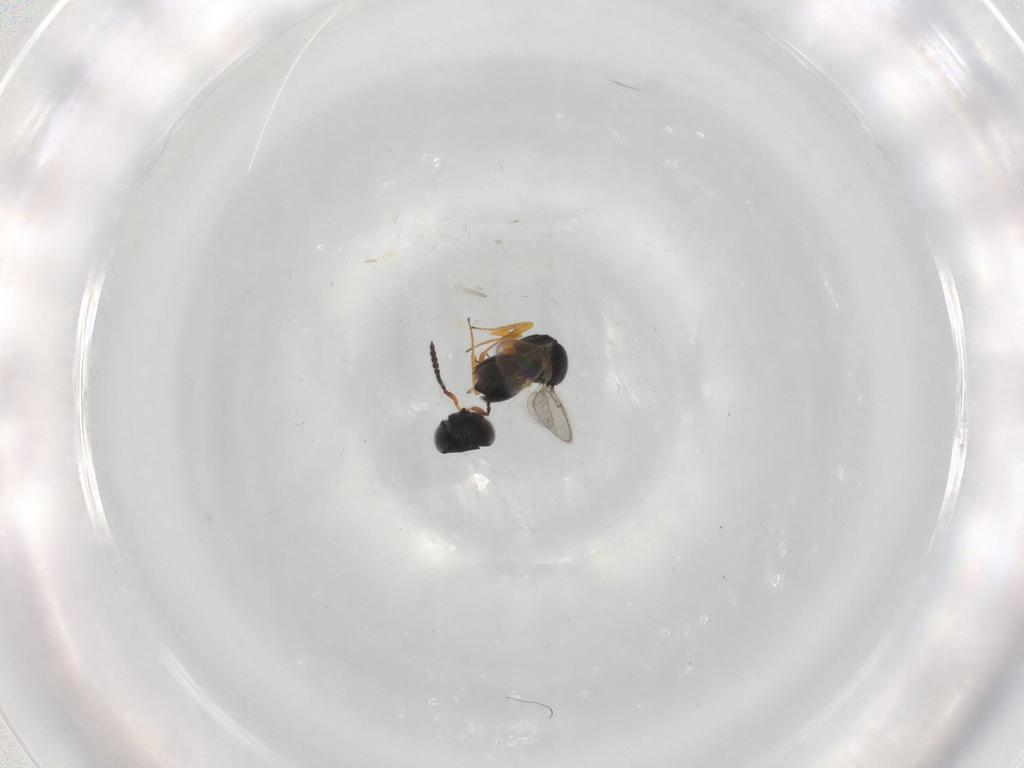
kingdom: Animalia
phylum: Arthropoda
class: Insecta
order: Hymenoptera
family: Scelionidae
